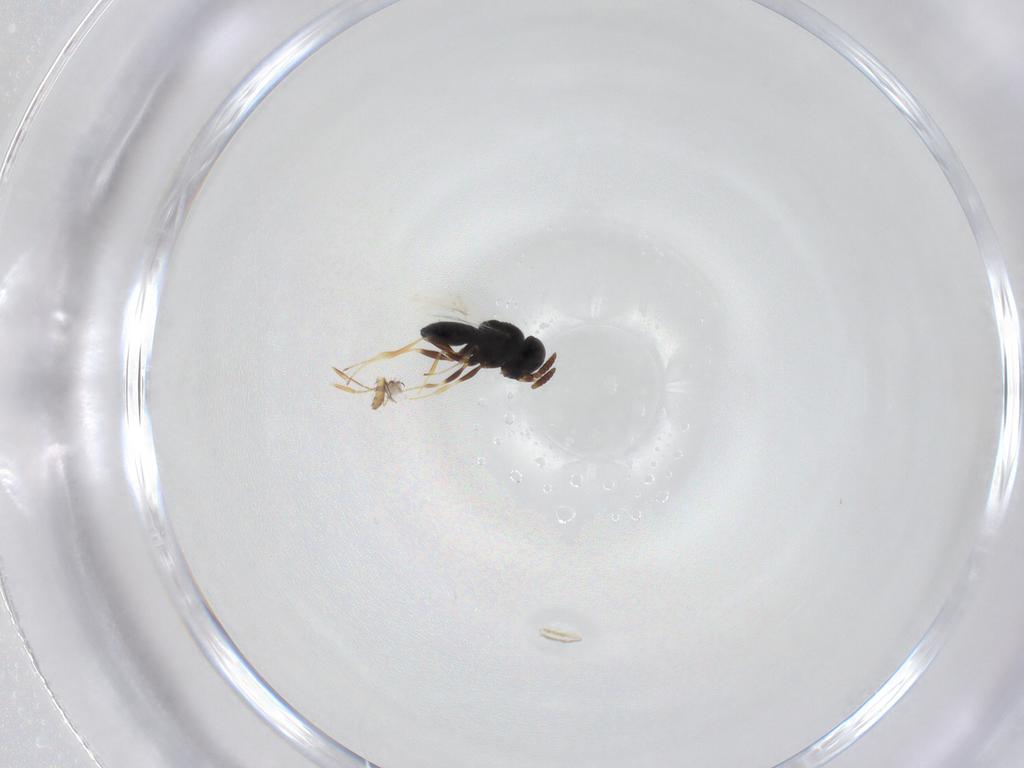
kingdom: Animalia
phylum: Arthropoda
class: Insecta
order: Hymenoptera
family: Scelionidae
